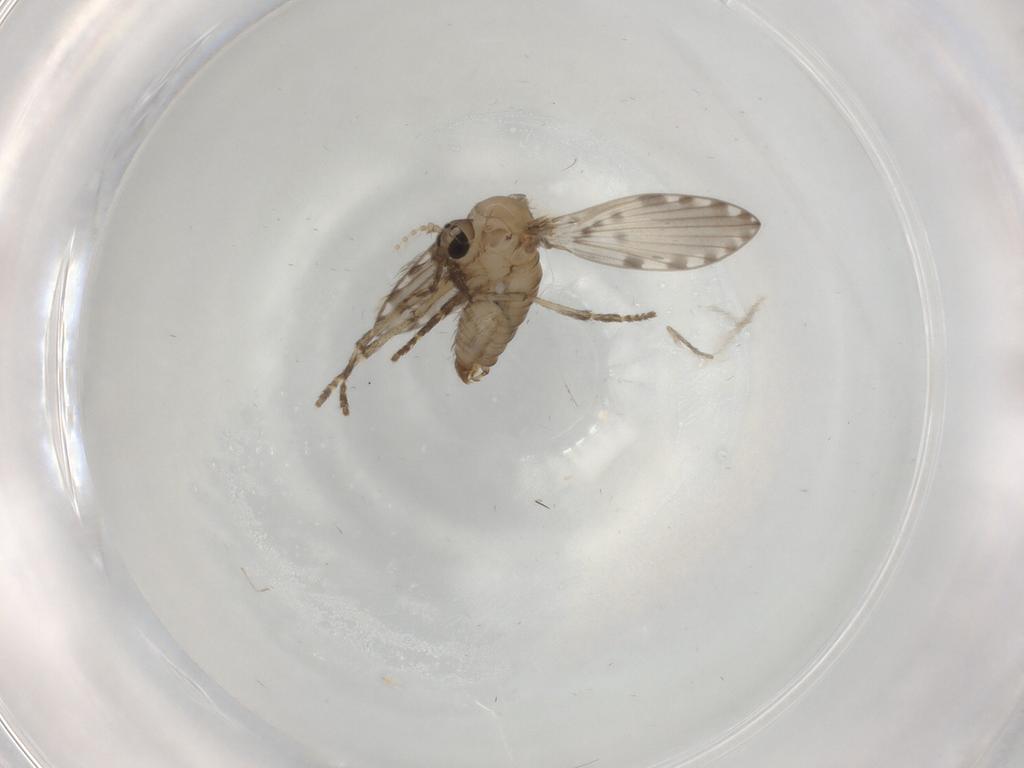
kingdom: Animalia
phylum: Arthropoda
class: Insecta
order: Diptera
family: Psychodidae
